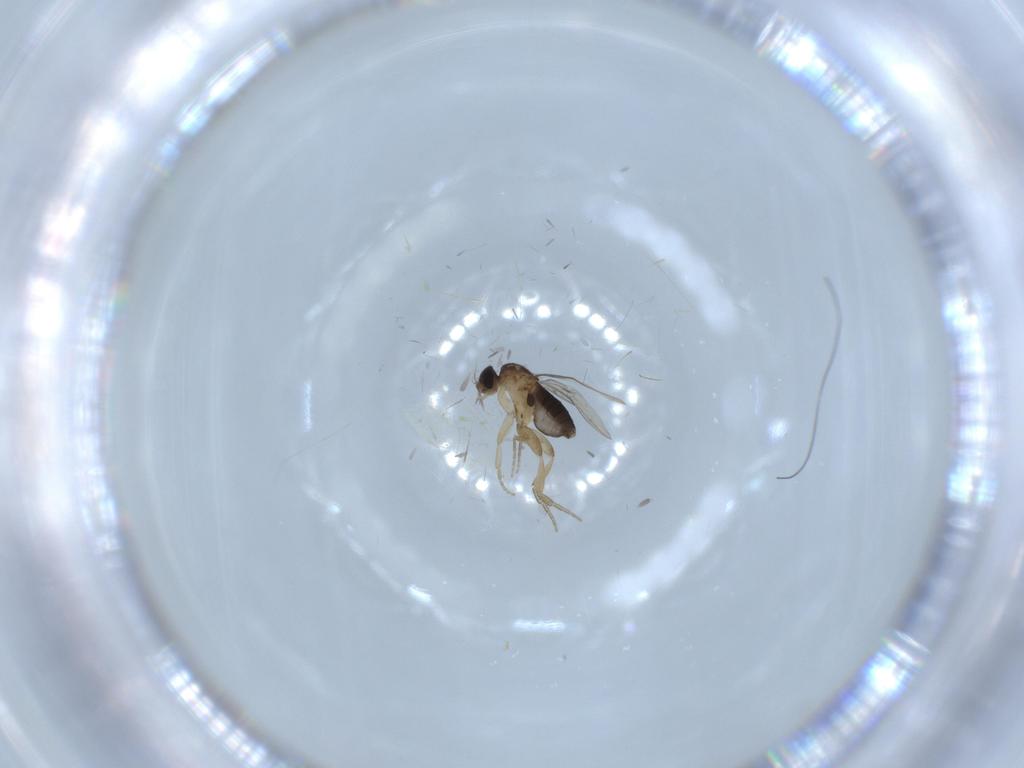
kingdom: Animalia
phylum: Arthropoda
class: Insecta
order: Diptera
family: Phoridae
